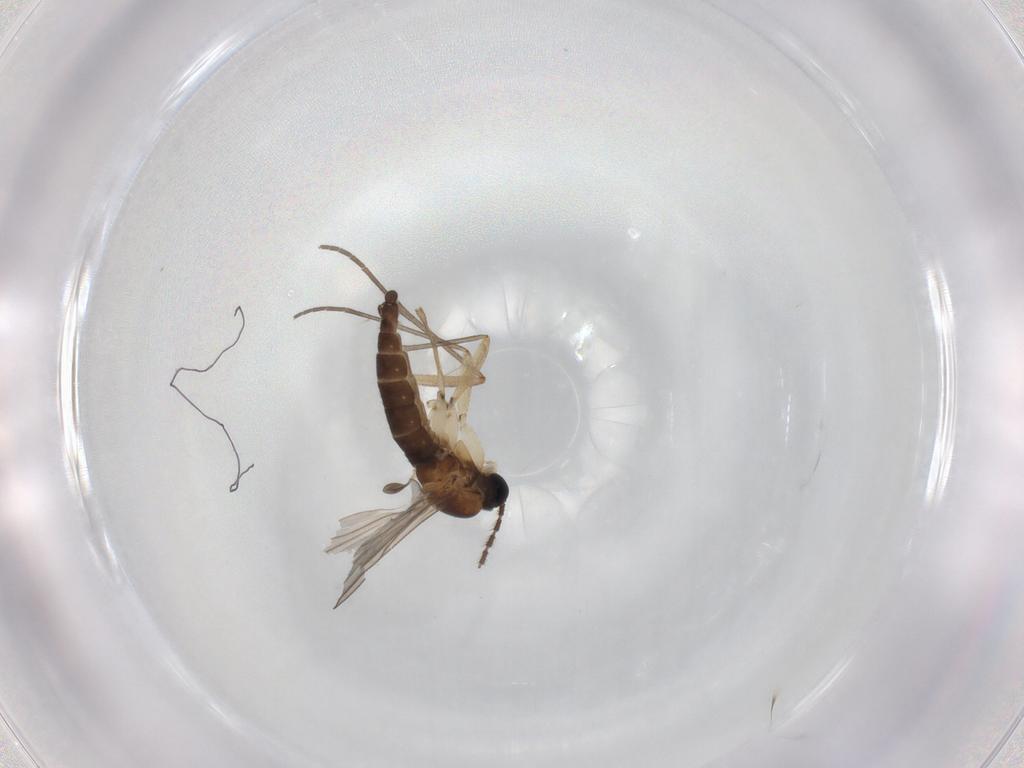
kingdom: Animalia
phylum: Arthropoda
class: Insecta
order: Diptera
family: Sciaridae
